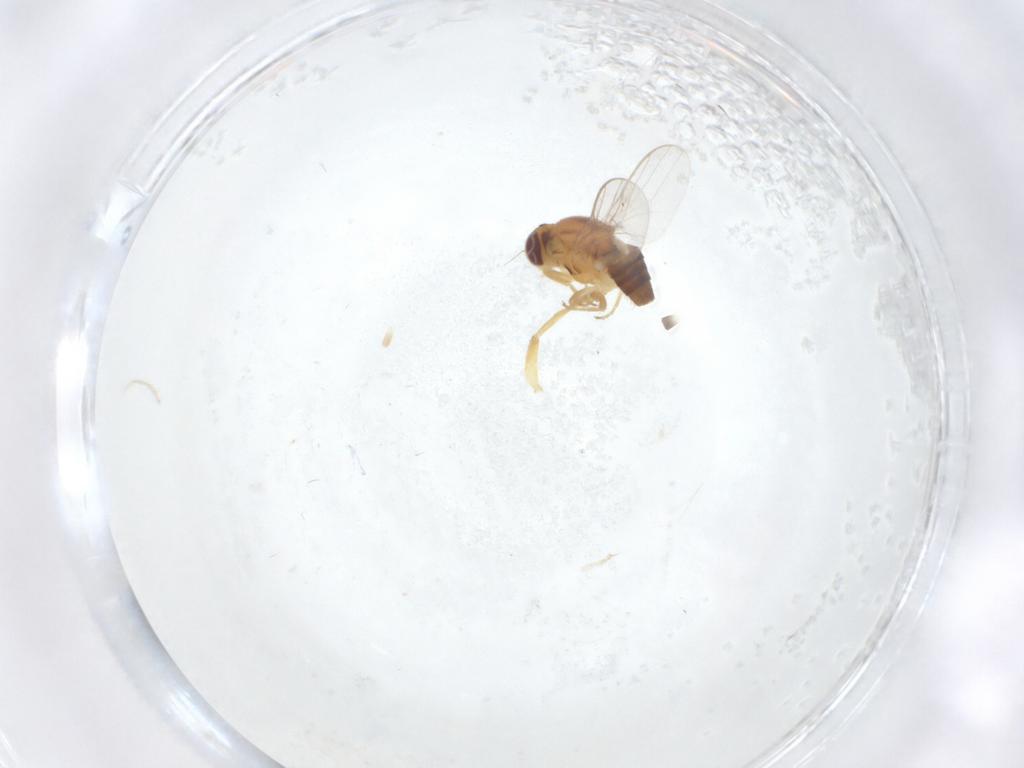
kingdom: Animalia
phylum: Arthropoda
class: Insecta
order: Diptera
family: Chloropidae
